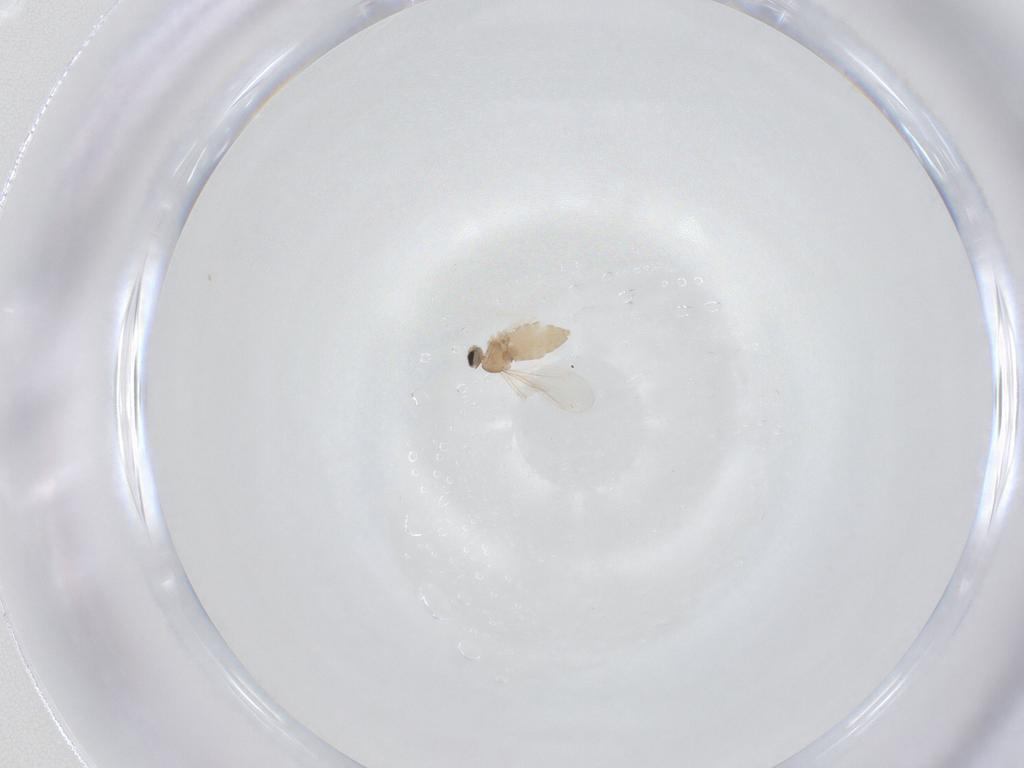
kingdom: Animalia
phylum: Arthropoda
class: Insecta
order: Diptera
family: Cecidomyiidae
